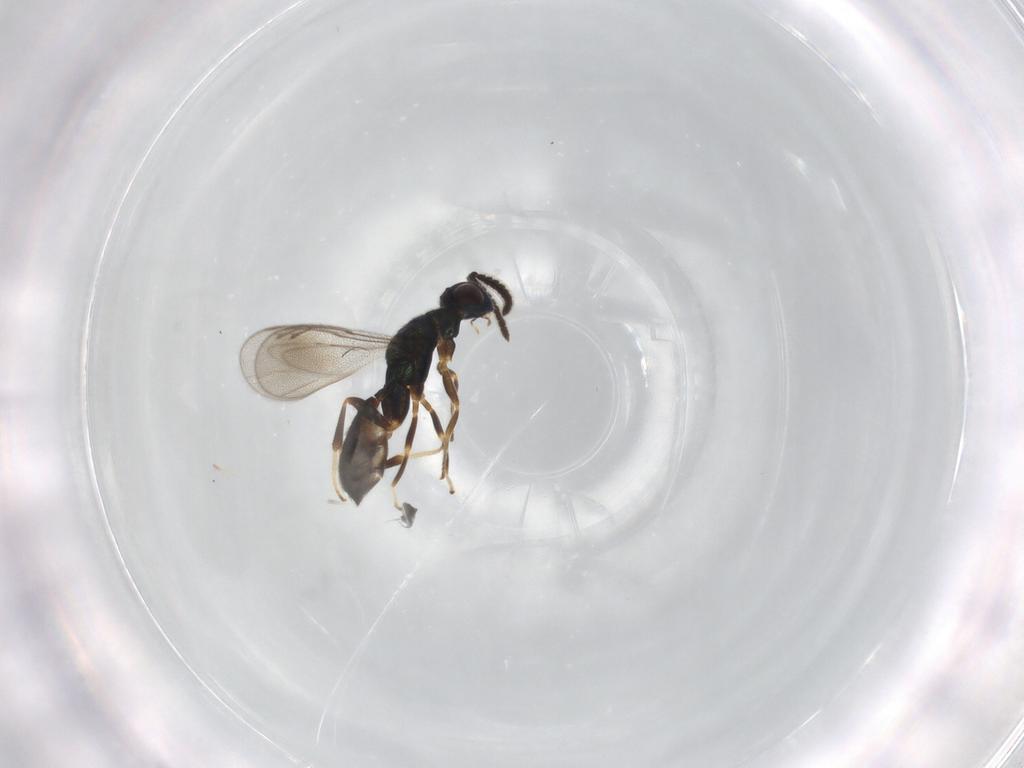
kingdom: Animalia
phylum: Arthropoda
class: Insecta
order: Hymenoptera
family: Cleonyminae
